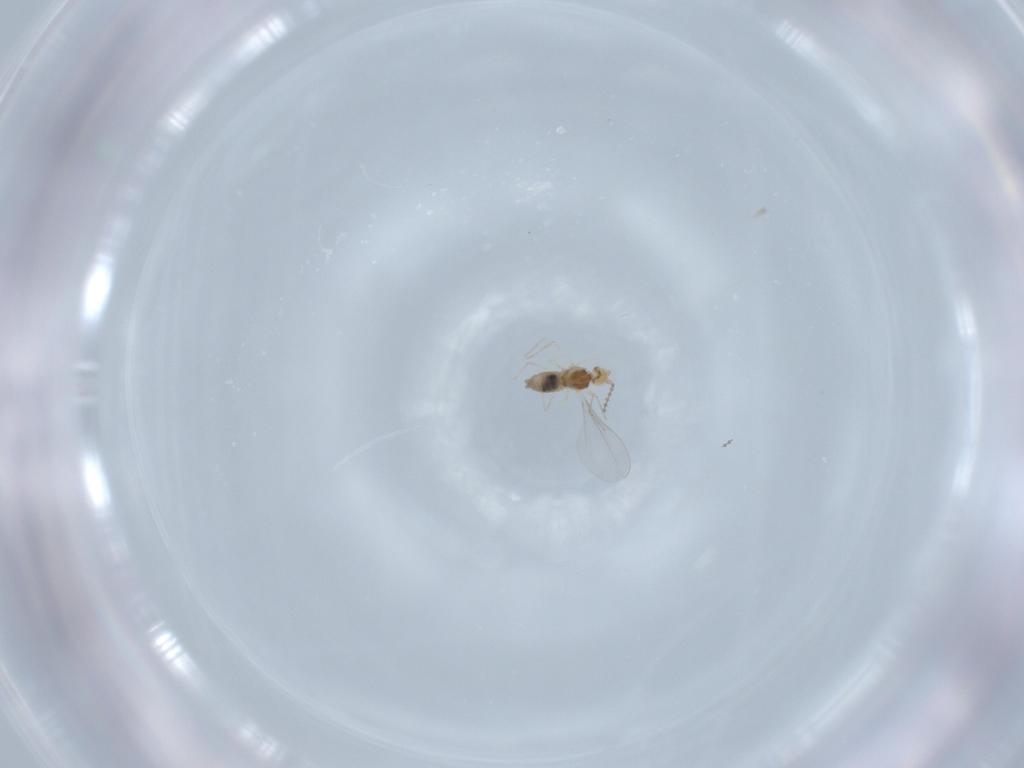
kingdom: Animalia
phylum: Arthropoda
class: Insecta
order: Diptera
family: Cecidomyiidae
